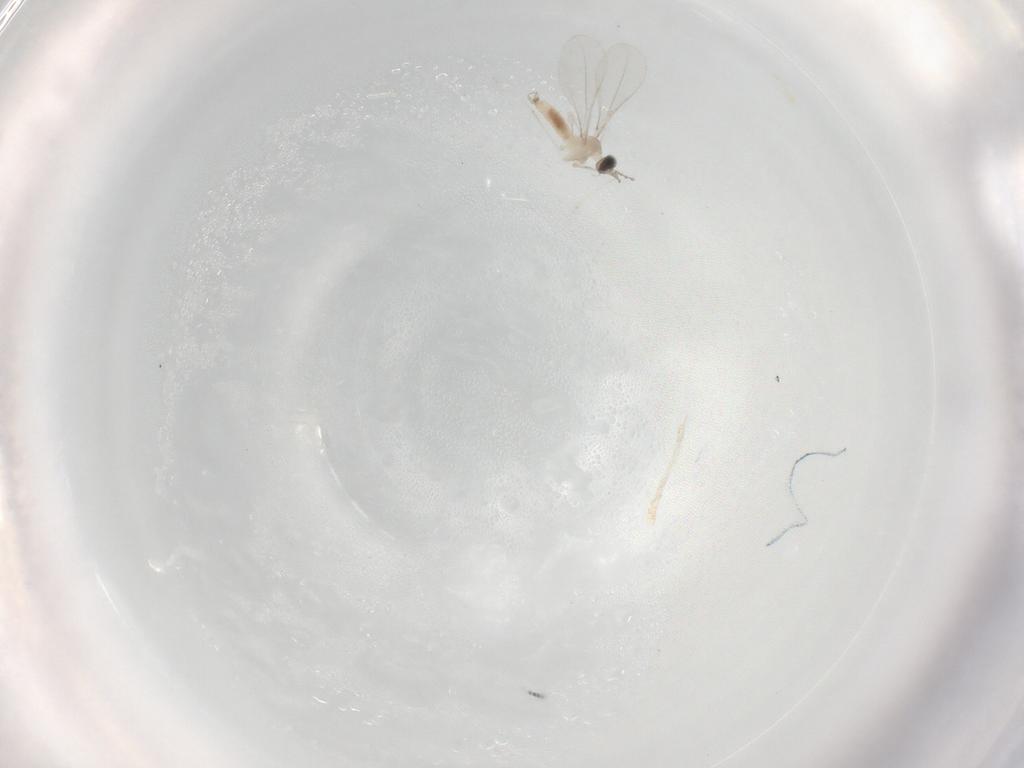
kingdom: Animalia
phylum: Arthropoda
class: Insecta
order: Diptera
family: Cecidomyiidae
